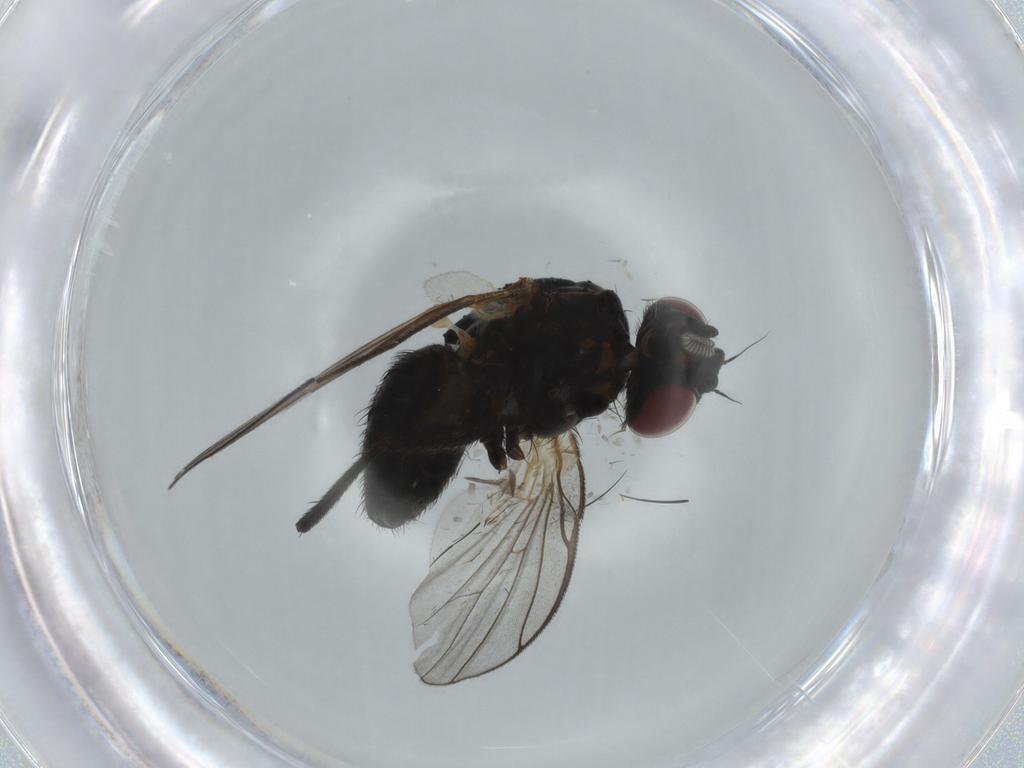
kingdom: Animalia
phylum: Arthropoda
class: Insecta
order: Diptera
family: Fannia
